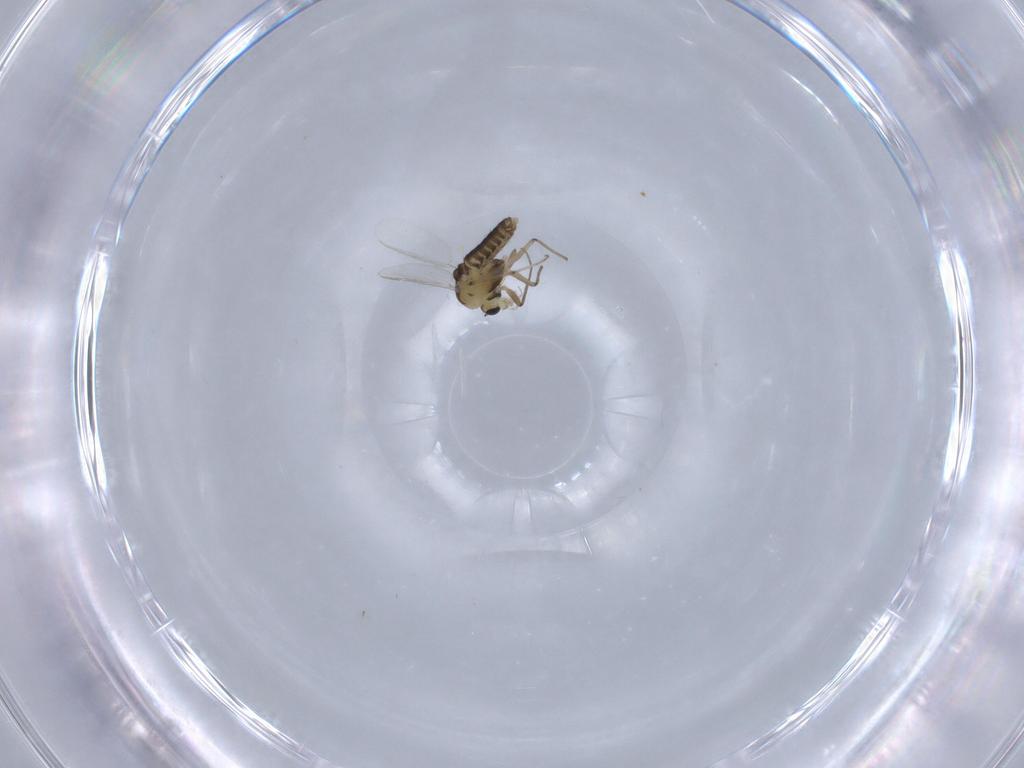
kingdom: Animalia
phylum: Arthropoda
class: Insecta
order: Diptera
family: Chironomidae
